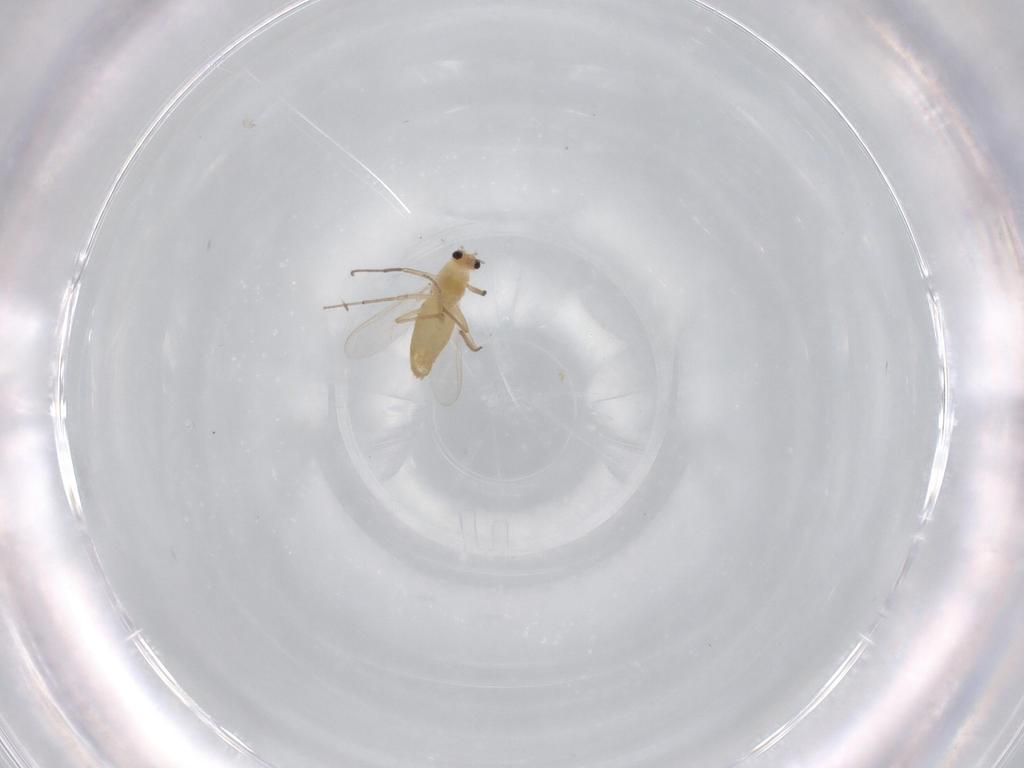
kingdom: Animalia
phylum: Arthropoda
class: Insecta
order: Diptera
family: Chironomidae
